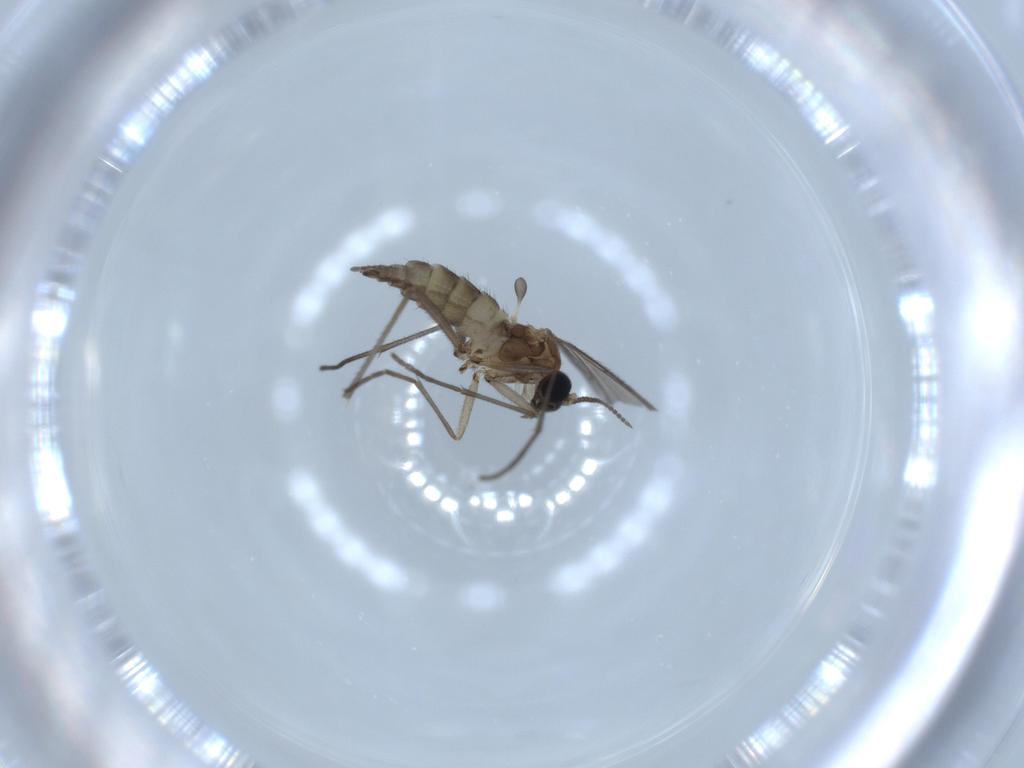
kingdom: Animalia
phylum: Arthropoda
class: Insecta
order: Diptera
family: Sciaridae
